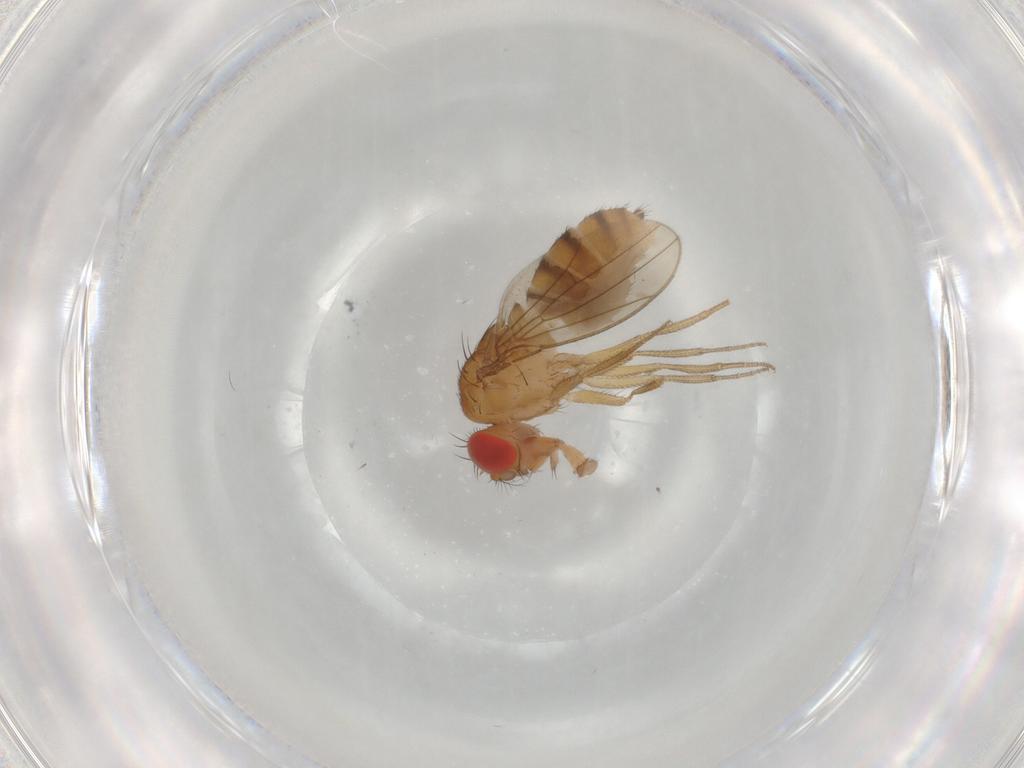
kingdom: Animalia
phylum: Arthropoda
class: Insecta
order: Diptera
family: Drosophilidae
